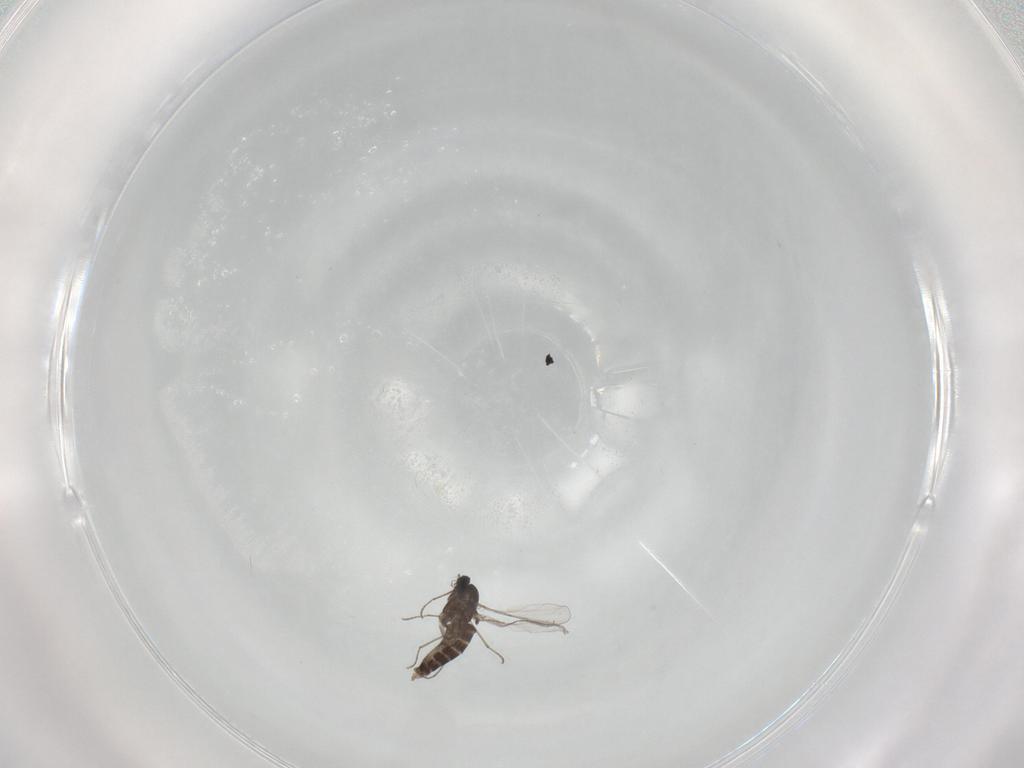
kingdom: Animalia
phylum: Arthropoda
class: Insecta
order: Diptera
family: Chironomidae
